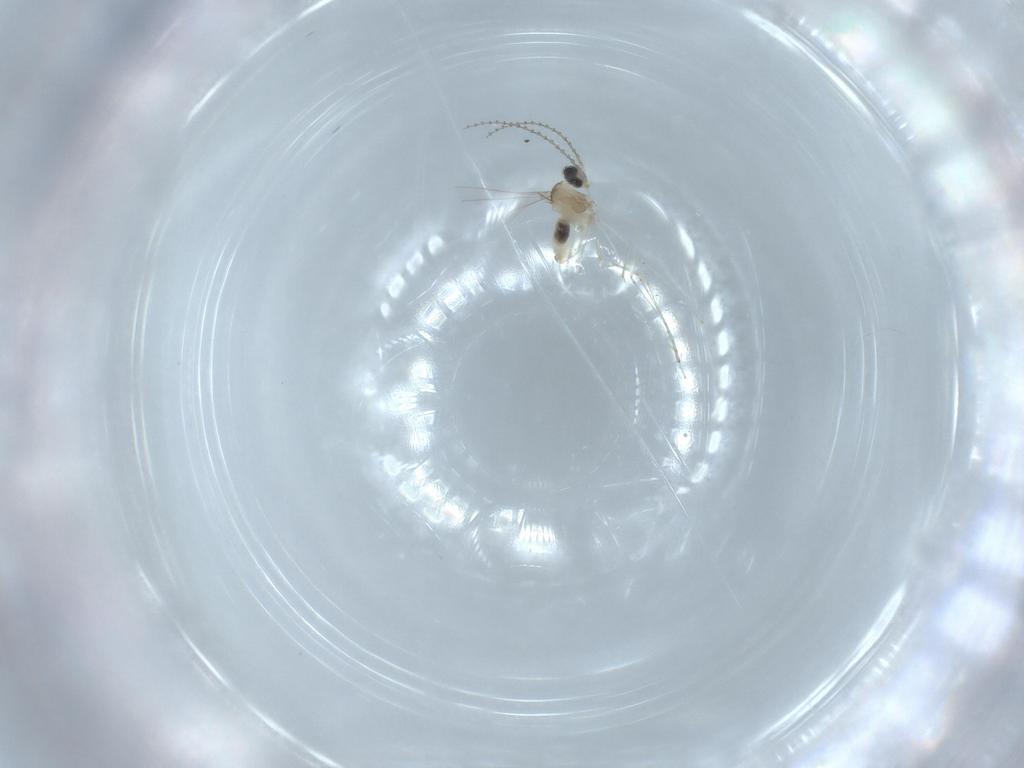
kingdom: Animalia
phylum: Arthropoda
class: Insecta
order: Diptera
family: Cecidomyiidae
